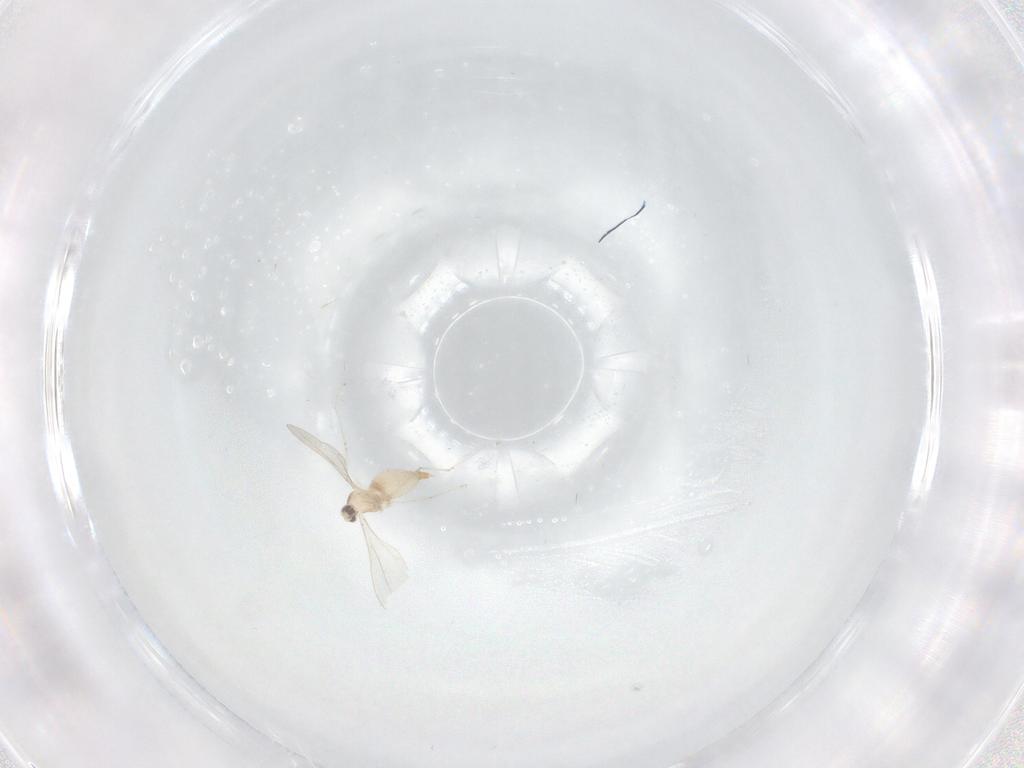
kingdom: Animalia
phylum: Arthropoda
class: Insecta
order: Diptera
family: Cecidomyiidae
